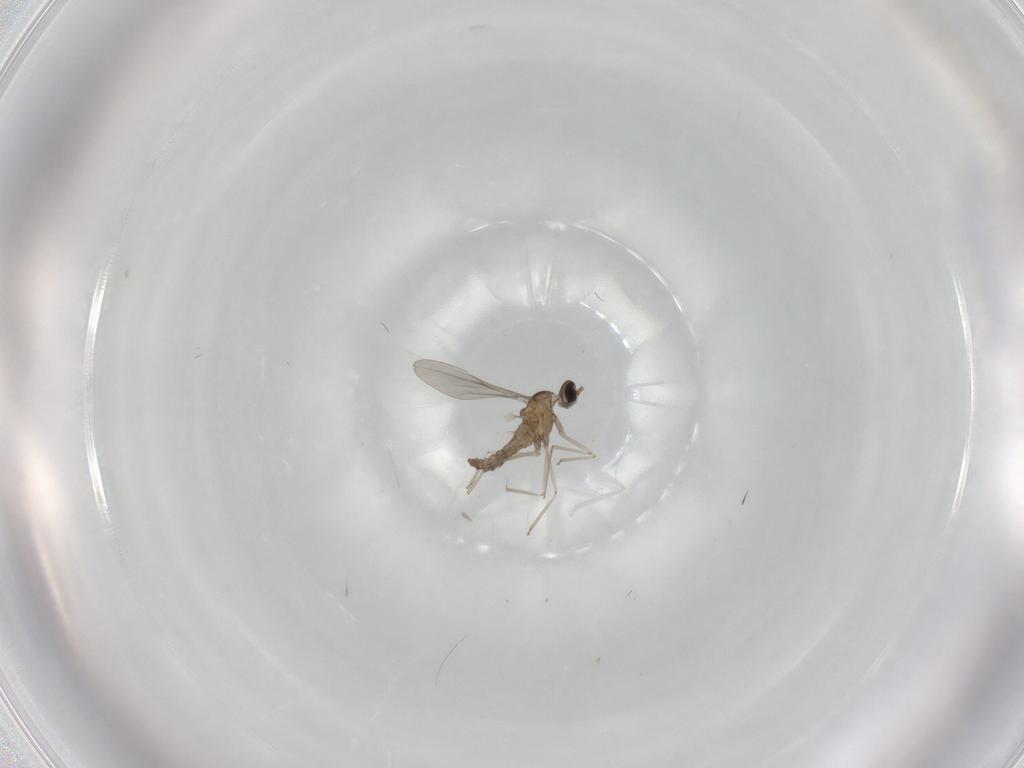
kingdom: Animalia
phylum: Arthropoda
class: Insecta
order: Diptera
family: Cecidomyiidae
